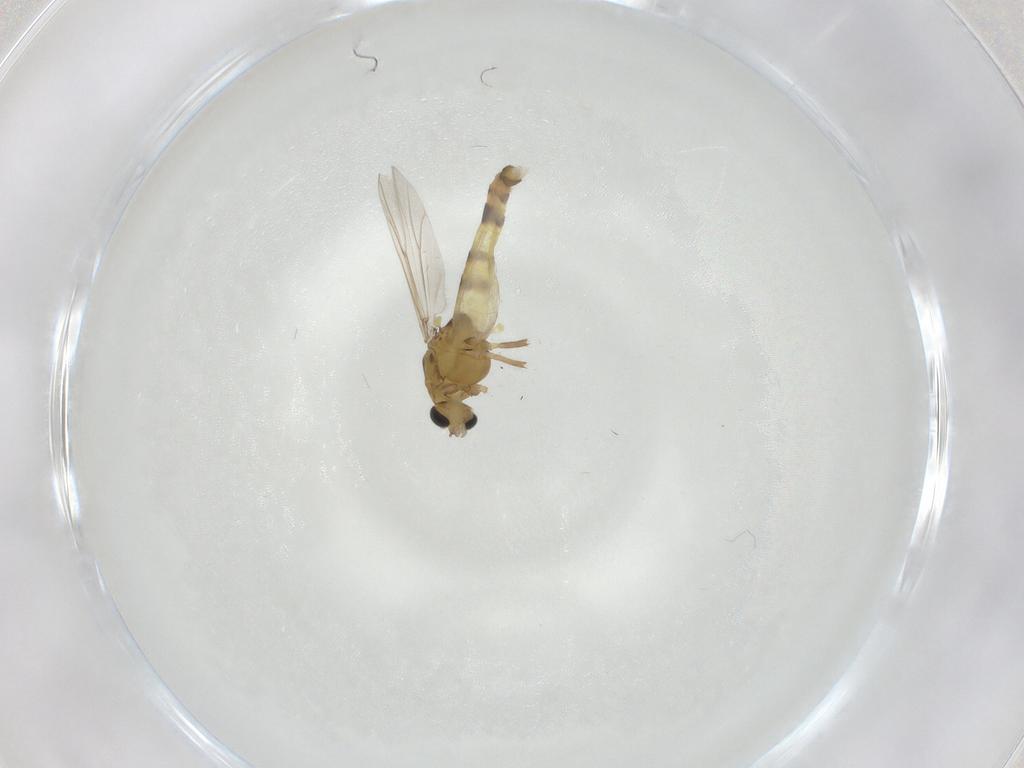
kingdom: Animalia
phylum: Arthropoda
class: Insecta
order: Diptera
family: Chironomidae
